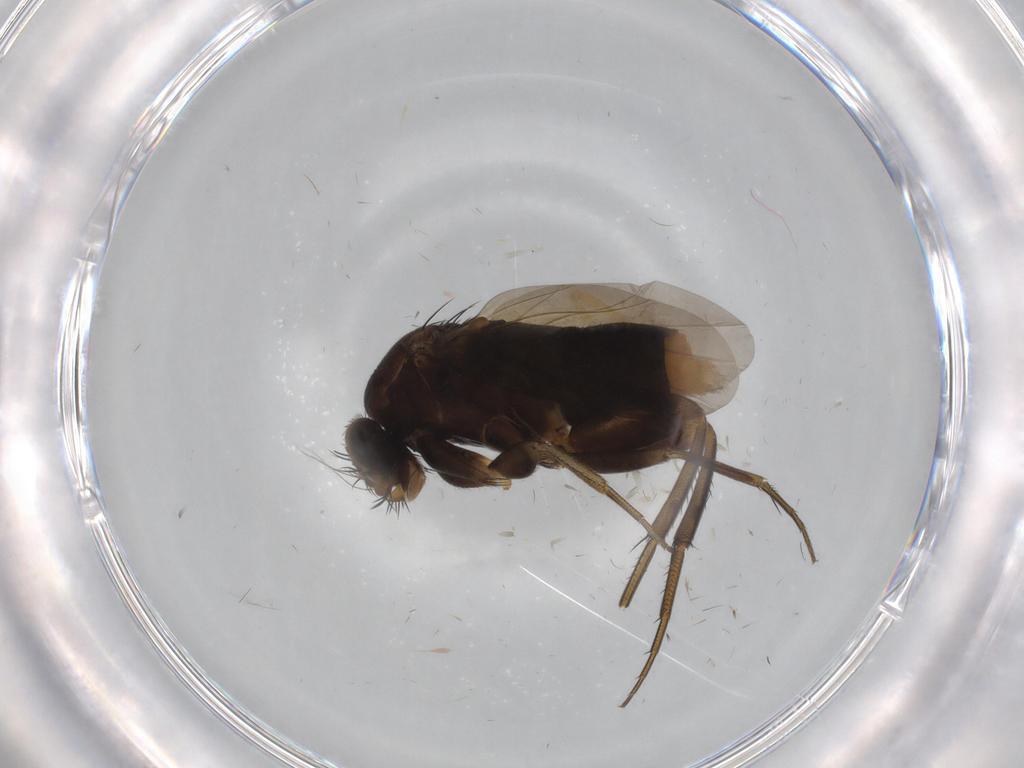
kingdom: Animalia
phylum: Arthropoda
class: Insecta
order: Diptera
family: Phoridae
